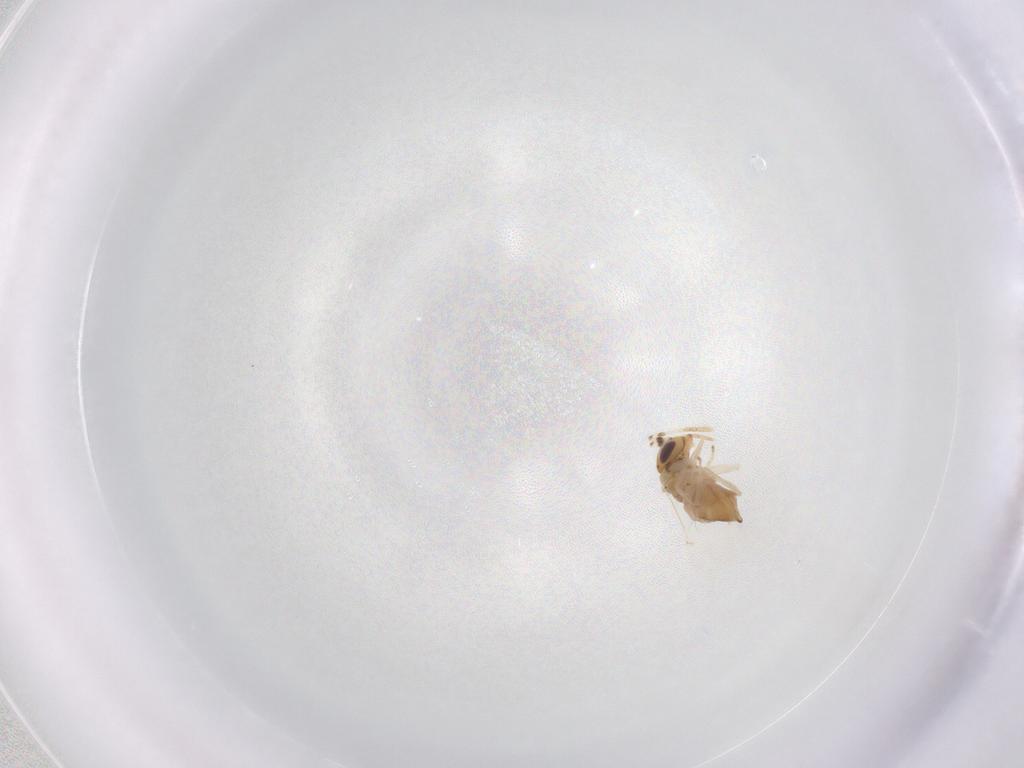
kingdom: Animalia
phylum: Arthropoda
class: Insecta
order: Hymenoptera
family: Encyrtidae
